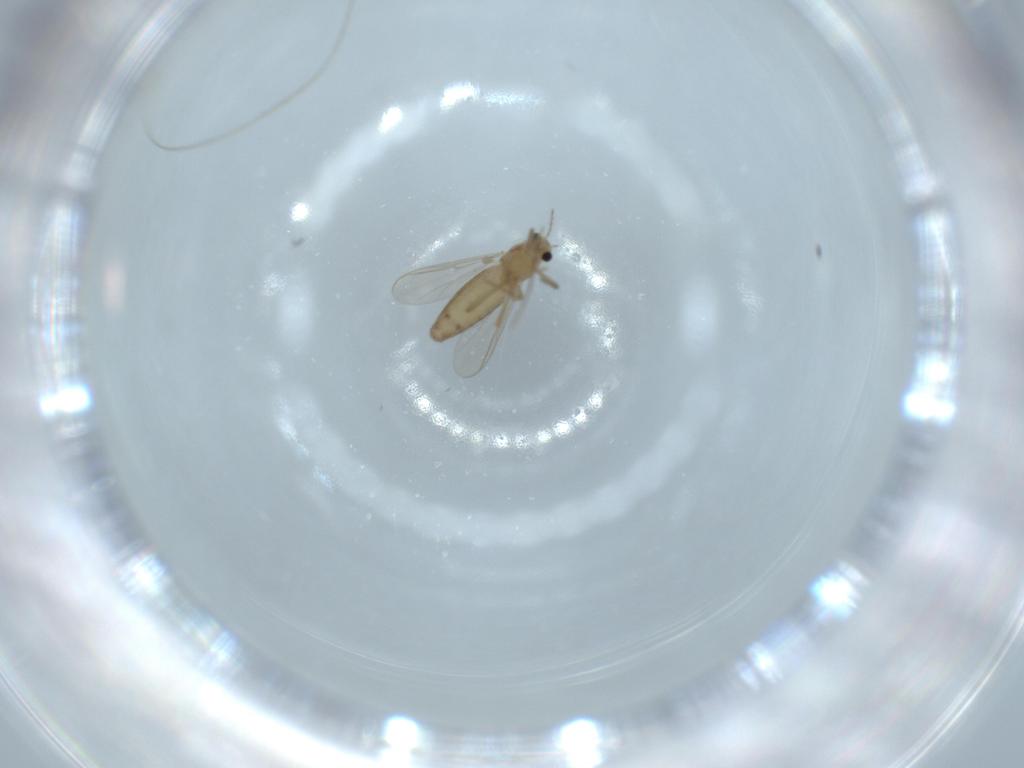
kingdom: Animalia
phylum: Arthropoda
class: Insecta
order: Diptera
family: Chironomidae
